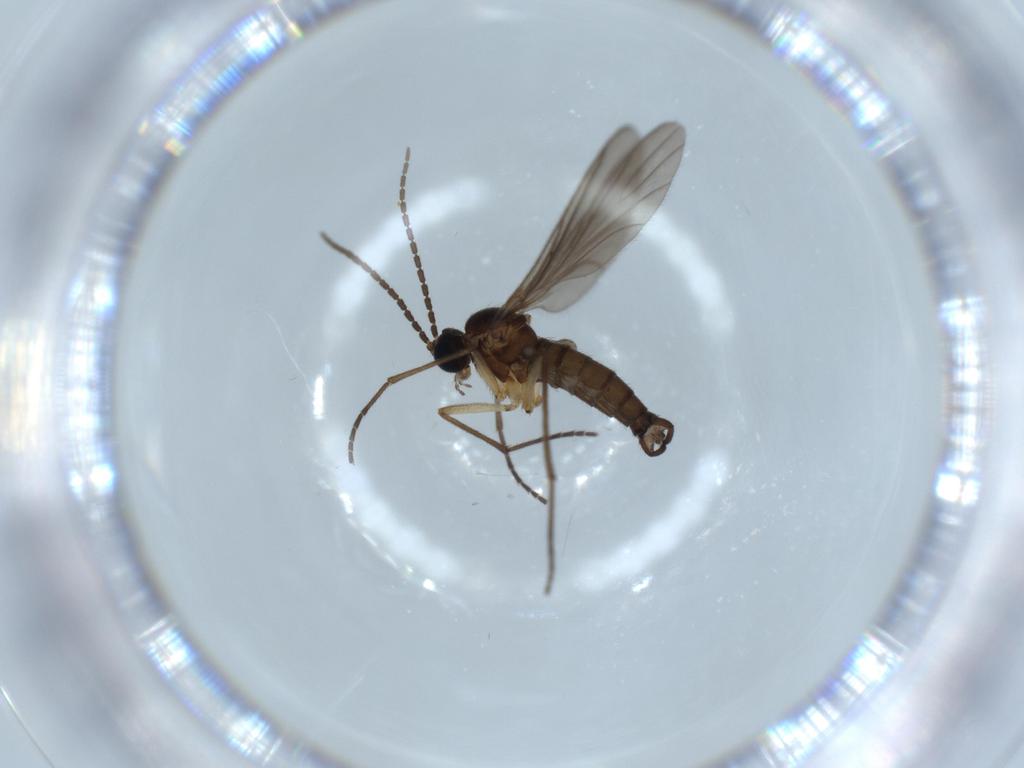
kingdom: Animalia
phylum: Arthropoda
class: Insecta
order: Diptera
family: Sciaridae
